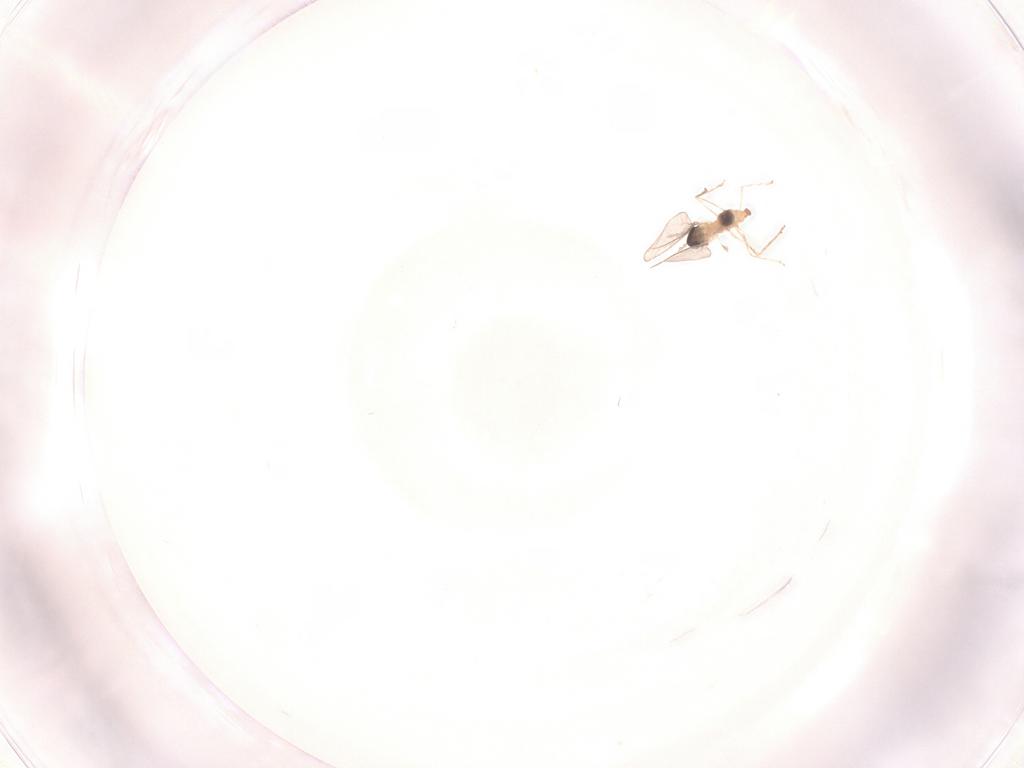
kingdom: Animalia
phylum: Arthropoda
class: Insecta
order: Diptera
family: Cecidomyiidae
